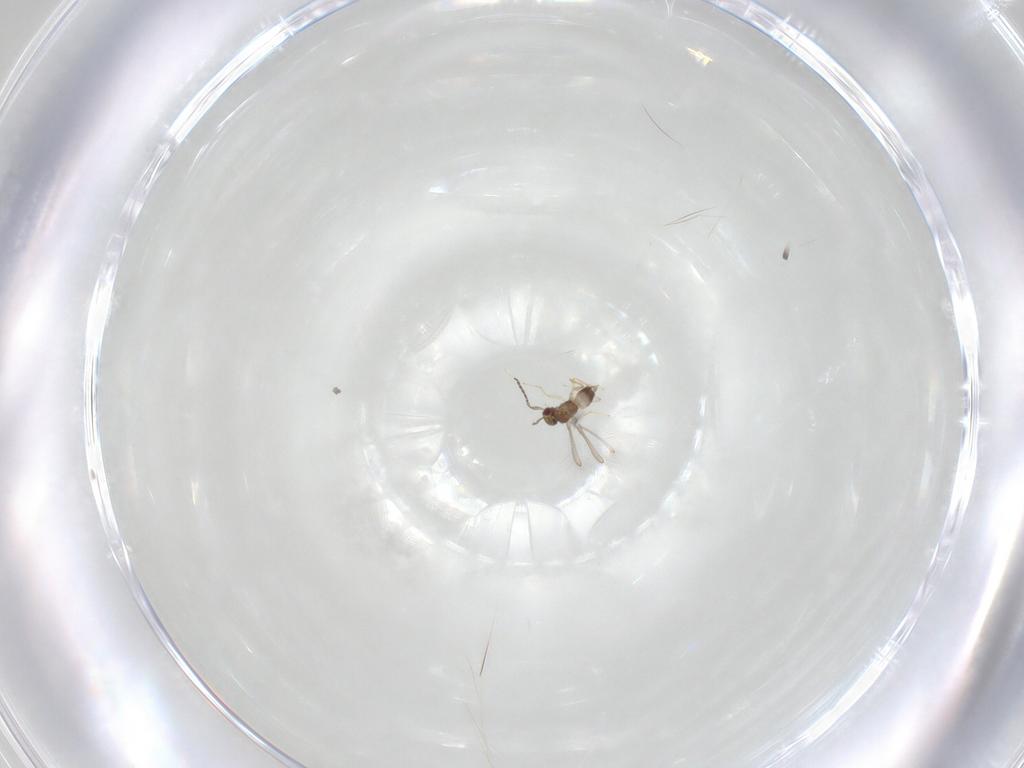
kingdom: Animalia
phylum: Arthropoda
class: Insecta
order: Hymenoptera
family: Mymaridae
